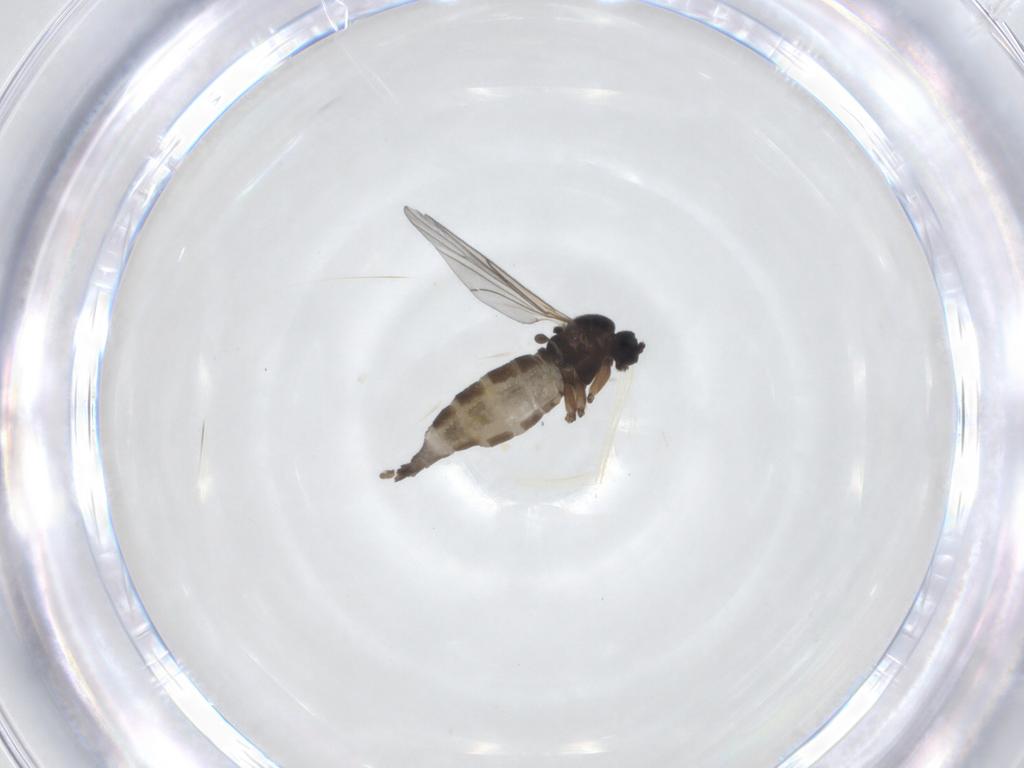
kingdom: Animalia
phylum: Arthropoda
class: Insecta
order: Diptera
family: Sciaridae
